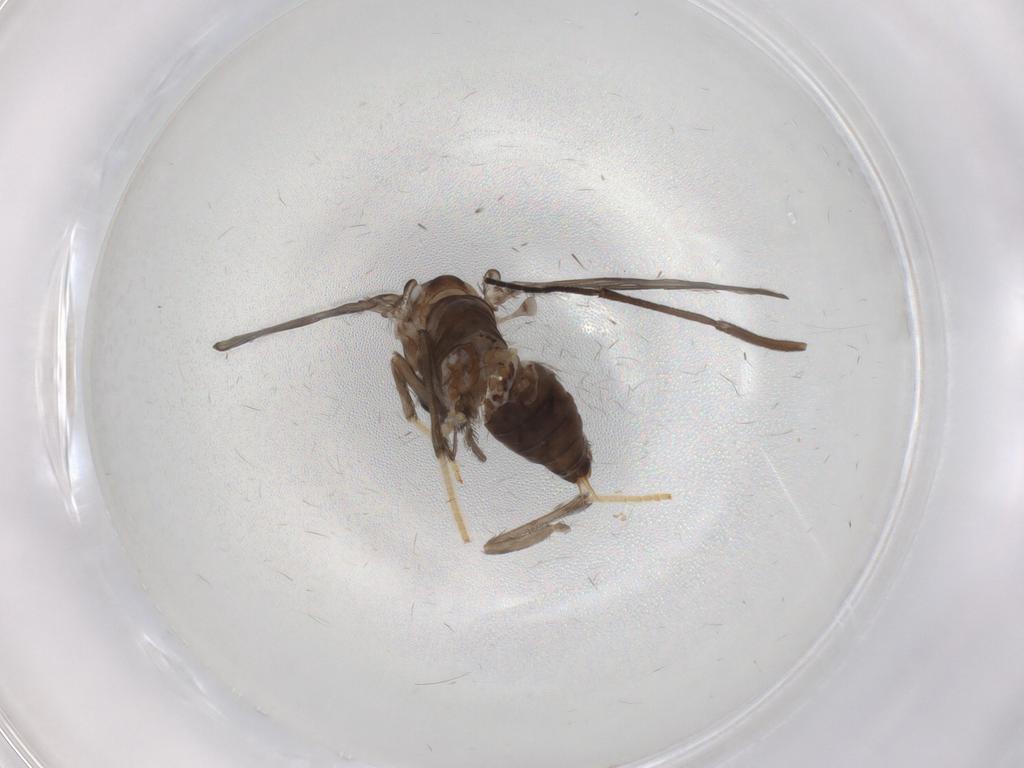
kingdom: Animalia
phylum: Arthropoda
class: Insecta
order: Diptera
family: Psychodidae
